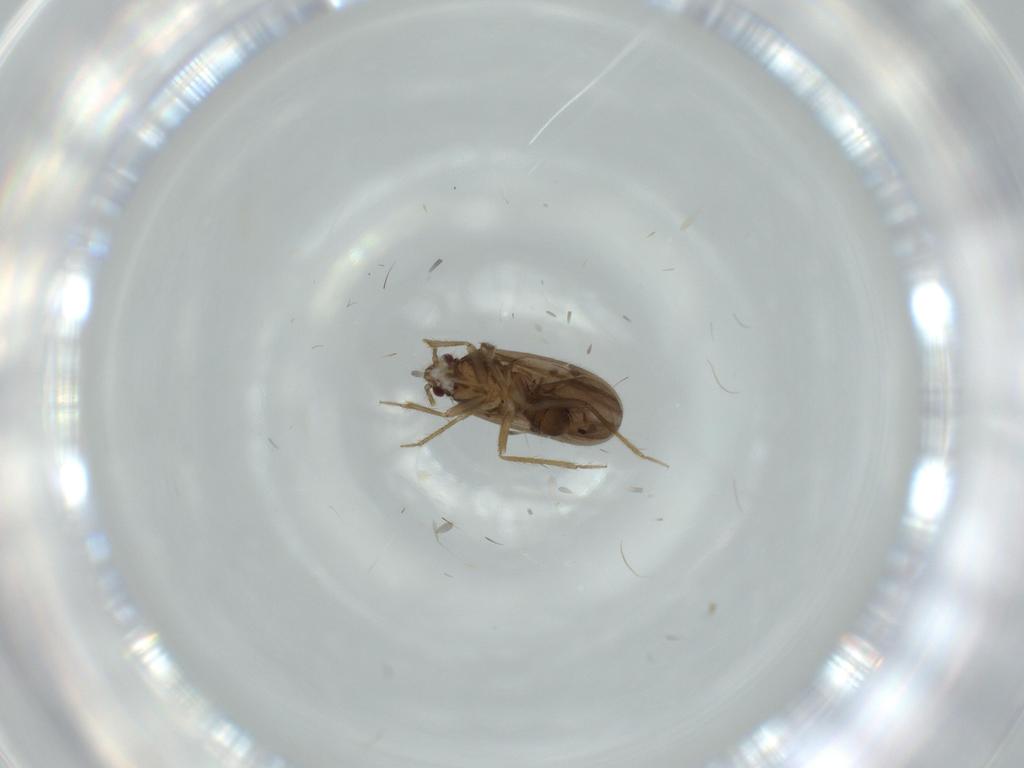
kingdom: Animalia
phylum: Arthropoda
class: Insecta
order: Hemiptera
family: Ceratocombidae
